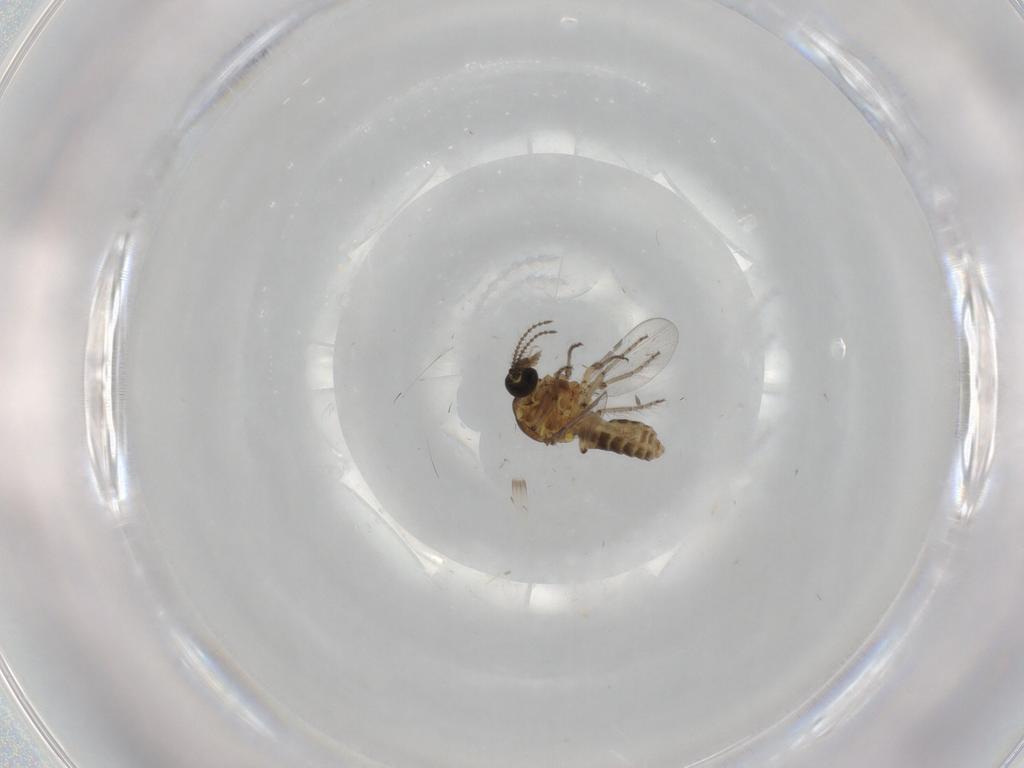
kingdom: Animalia
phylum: Arthropoda
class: Insecta
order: Diptera
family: Ceratopogonidae
